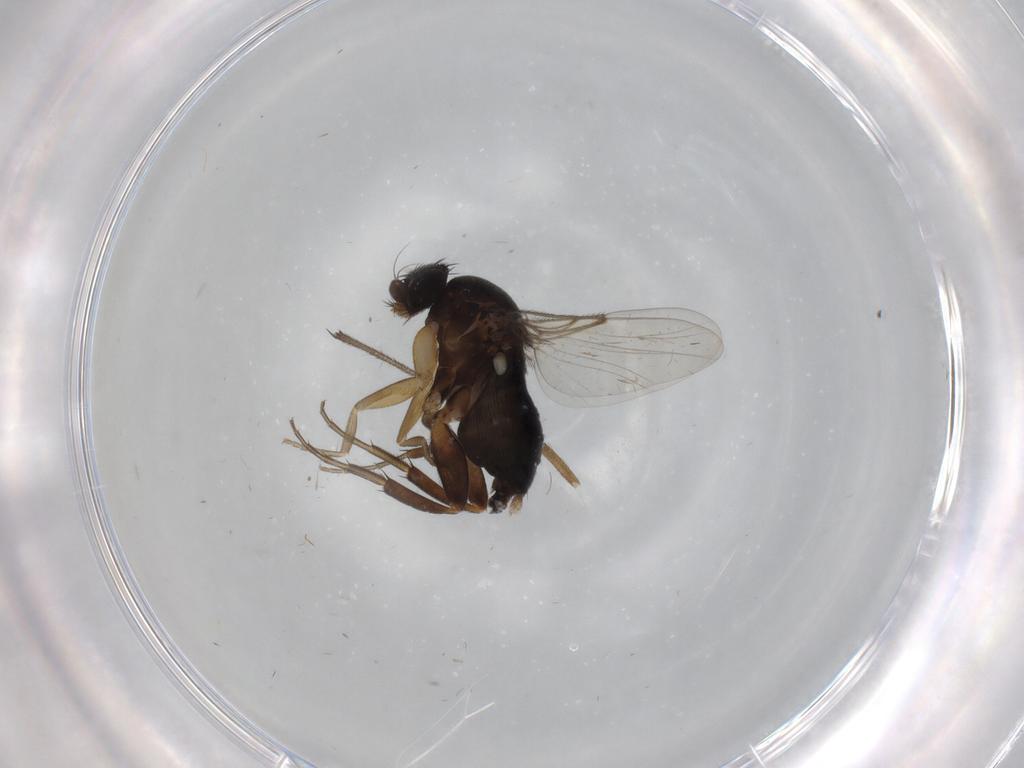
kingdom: Animalia
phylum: Arthropoda
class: Insecta
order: Diptera
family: Phoridae
